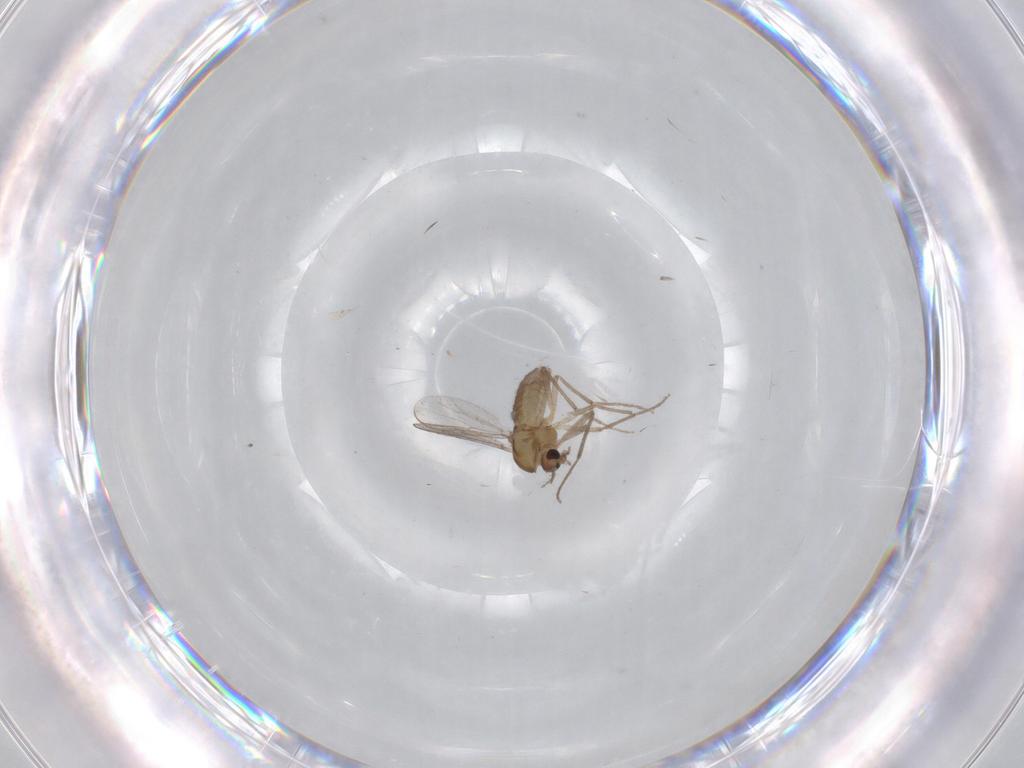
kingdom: Animalia
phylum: Arthropoda
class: Insecta
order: Diptera
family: Chironomidae
